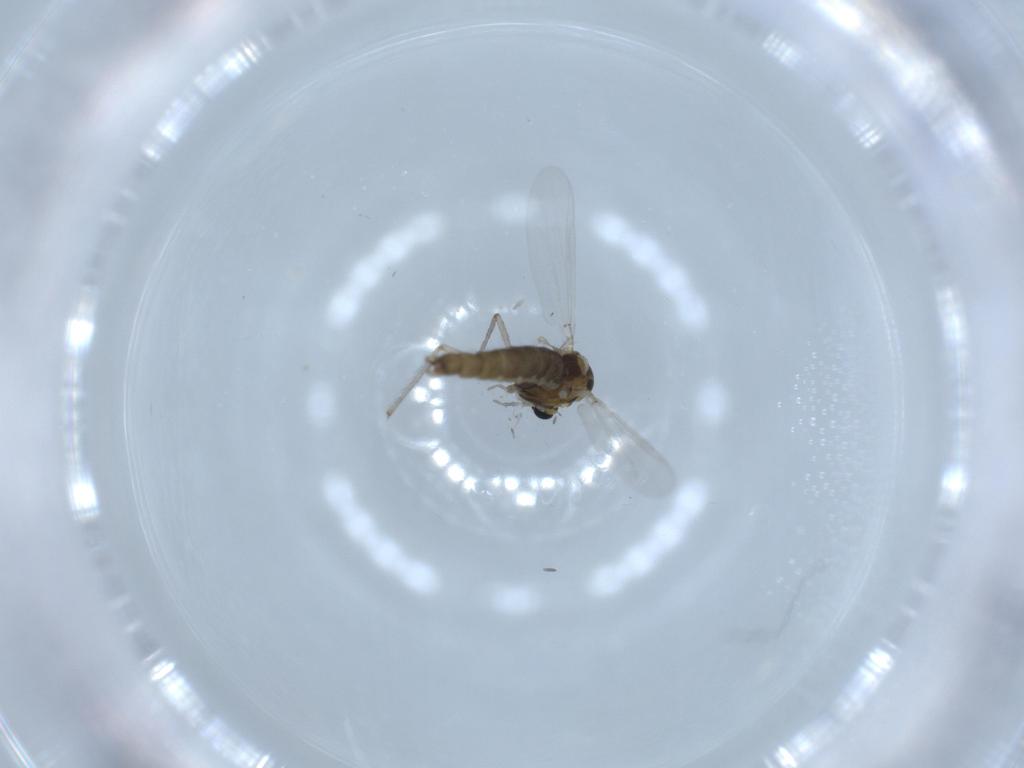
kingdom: Animalia
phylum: Arthropoda
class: Insecta
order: Diptera
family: Chironomidae
